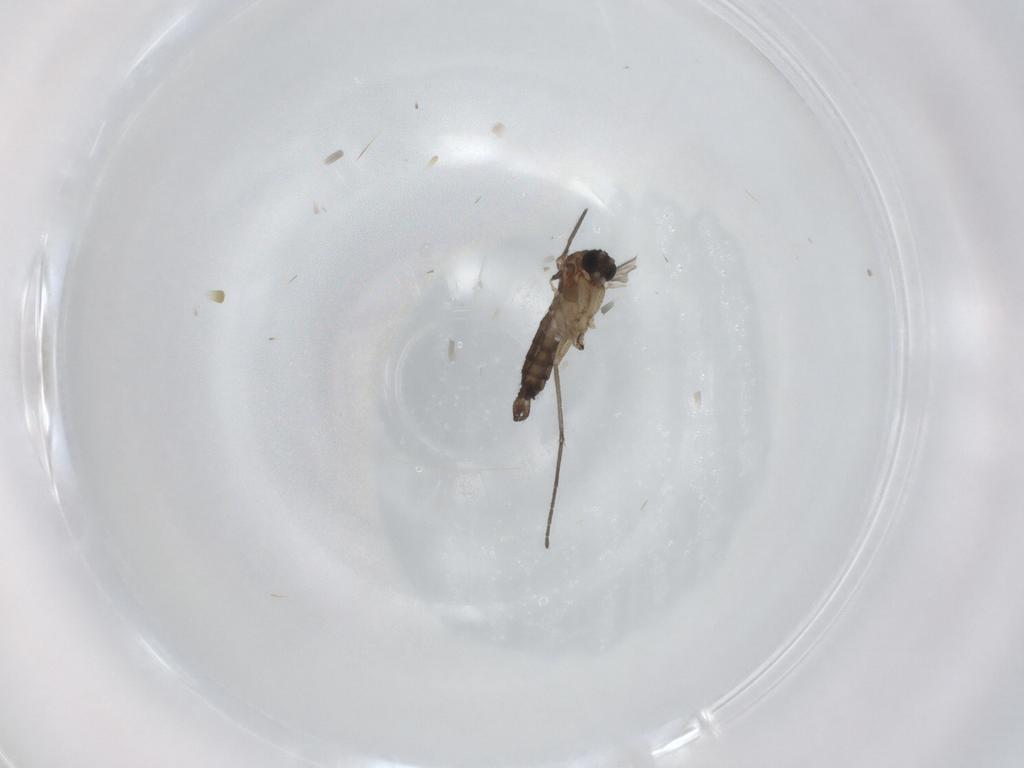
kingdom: Animalia
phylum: Arthropoda
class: Insecta
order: Diptera
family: Sciaridae
